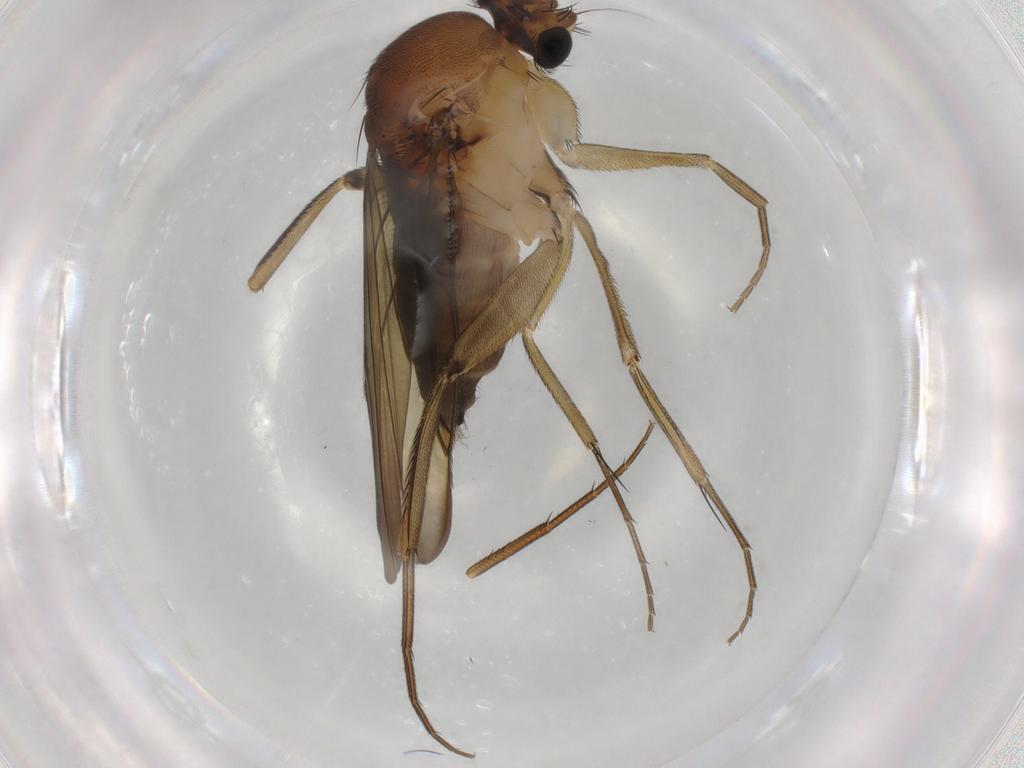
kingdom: Animalia
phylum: Arthropoda
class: Insecta
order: Diptera
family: Phoridae
